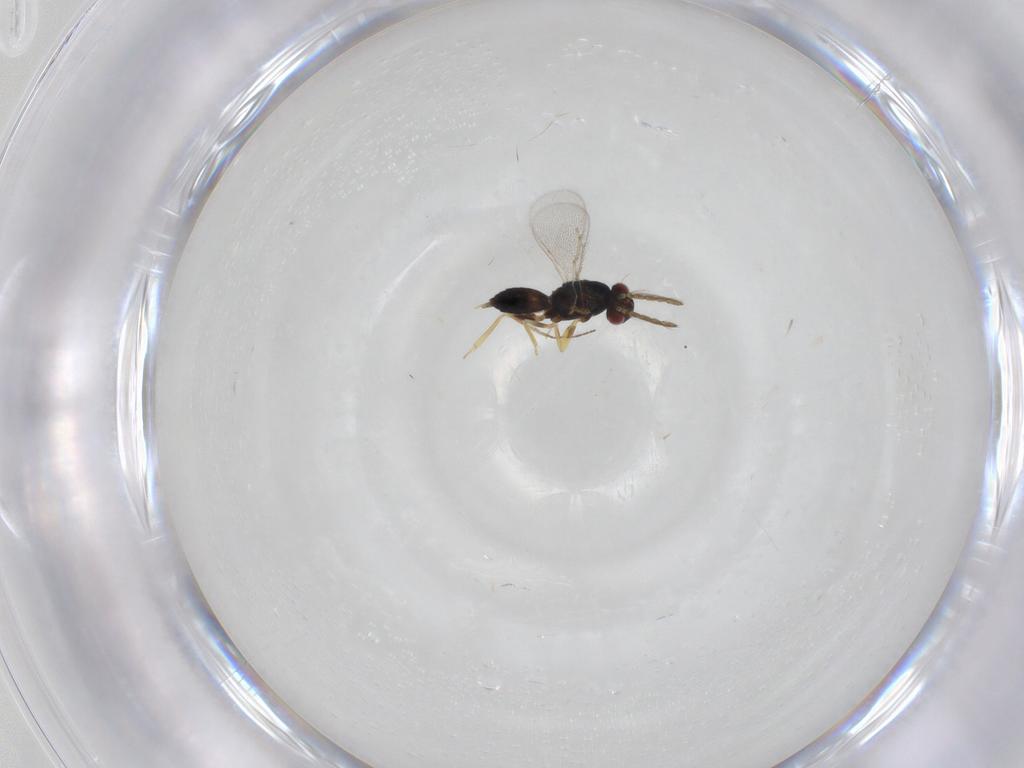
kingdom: Animalia
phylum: Arthropoda
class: Insecta
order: Hymenoptera
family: Eulophidae
